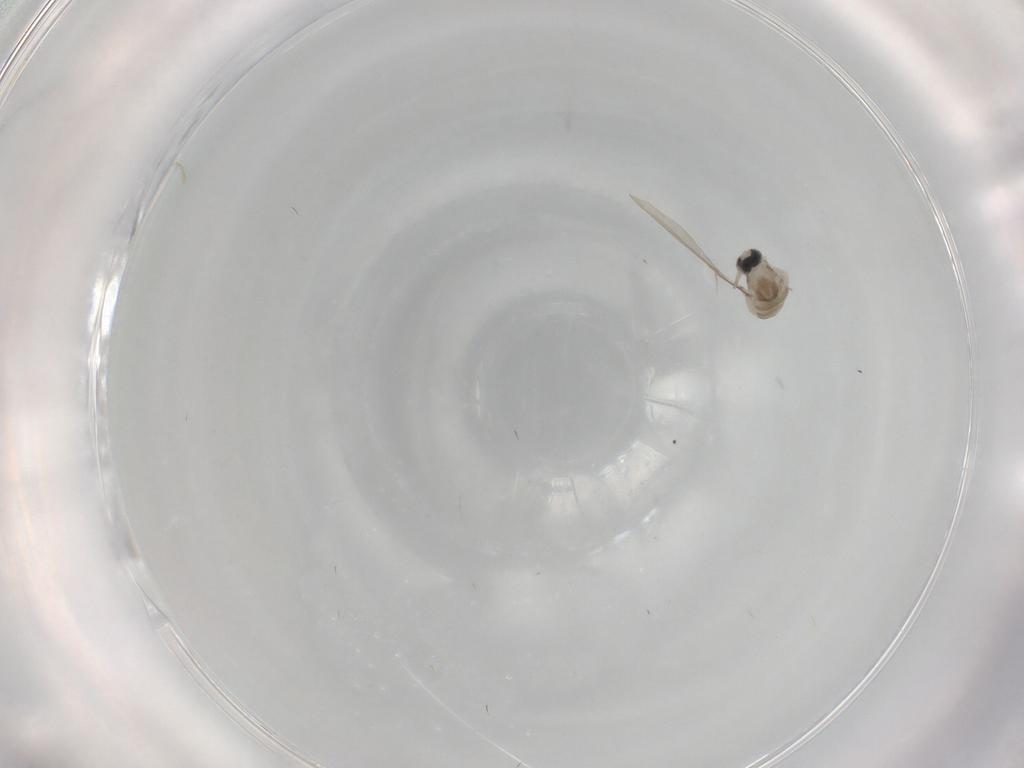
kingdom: Animalia
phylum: Arthropoda
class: Insecta
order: Diptera
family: Cecidomyiidae
